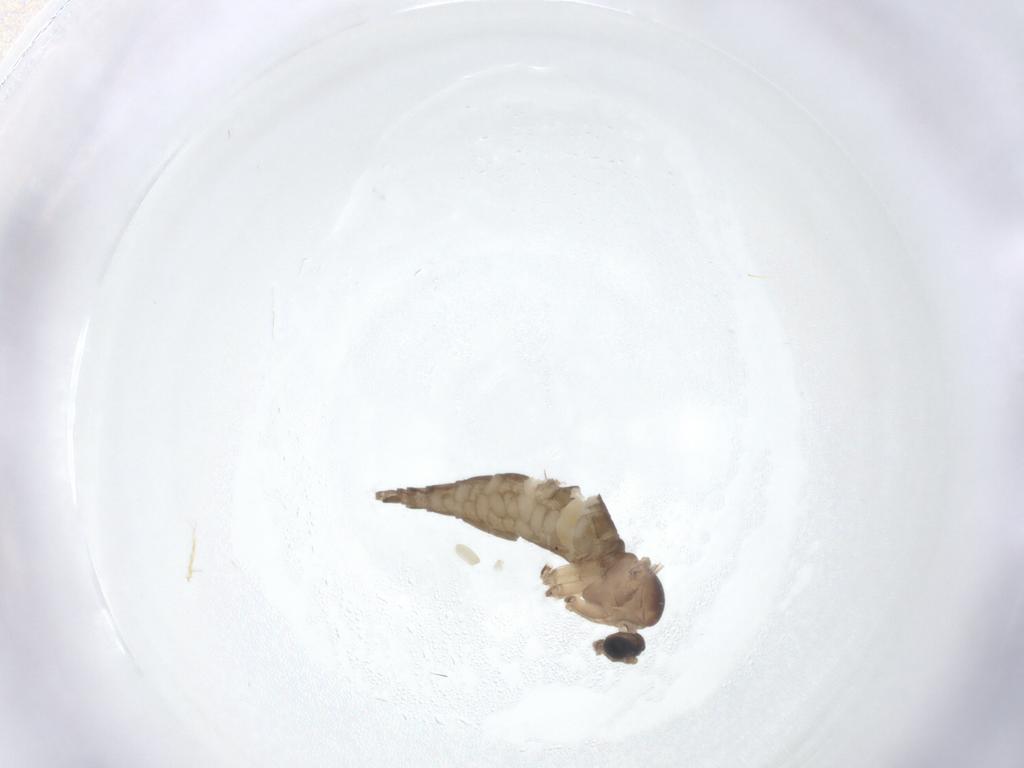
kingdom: Animalia
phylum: Arthropoda
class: Insecta
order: Diptera
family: Sciaridae
